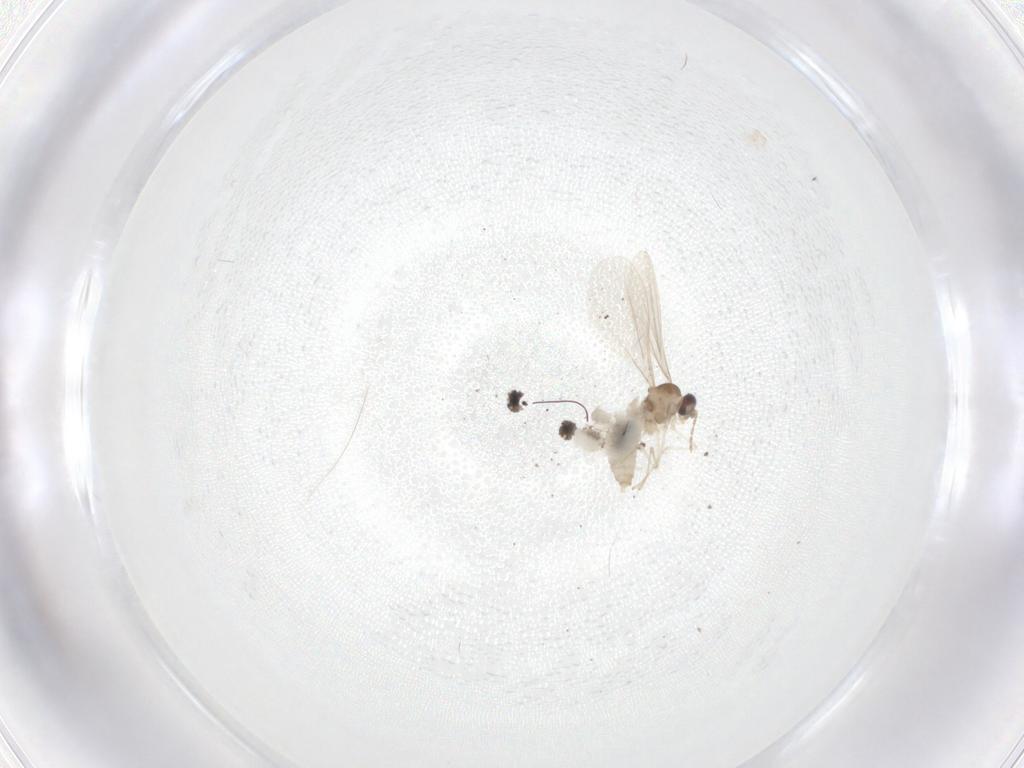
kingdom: Animalia
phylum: Arthropoda
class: Insecta
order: Diptera
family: Cecidomyiidae
